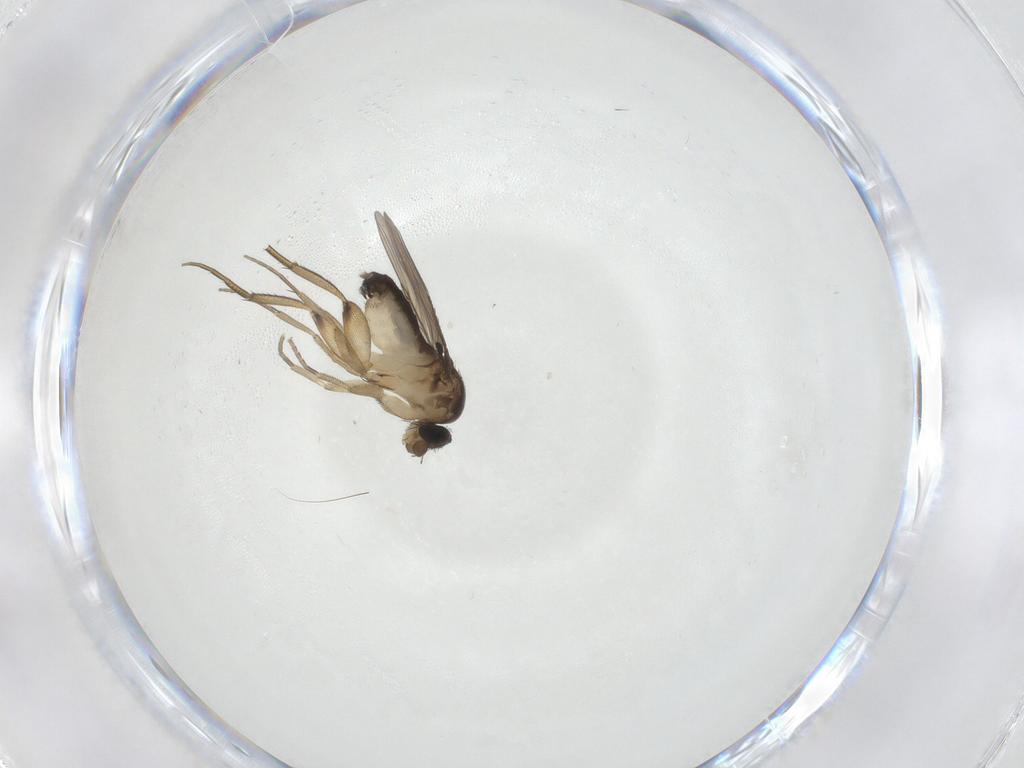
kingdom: Animalia
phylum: Arthropoda
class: Insecta
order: Diptera
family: Phoridae
